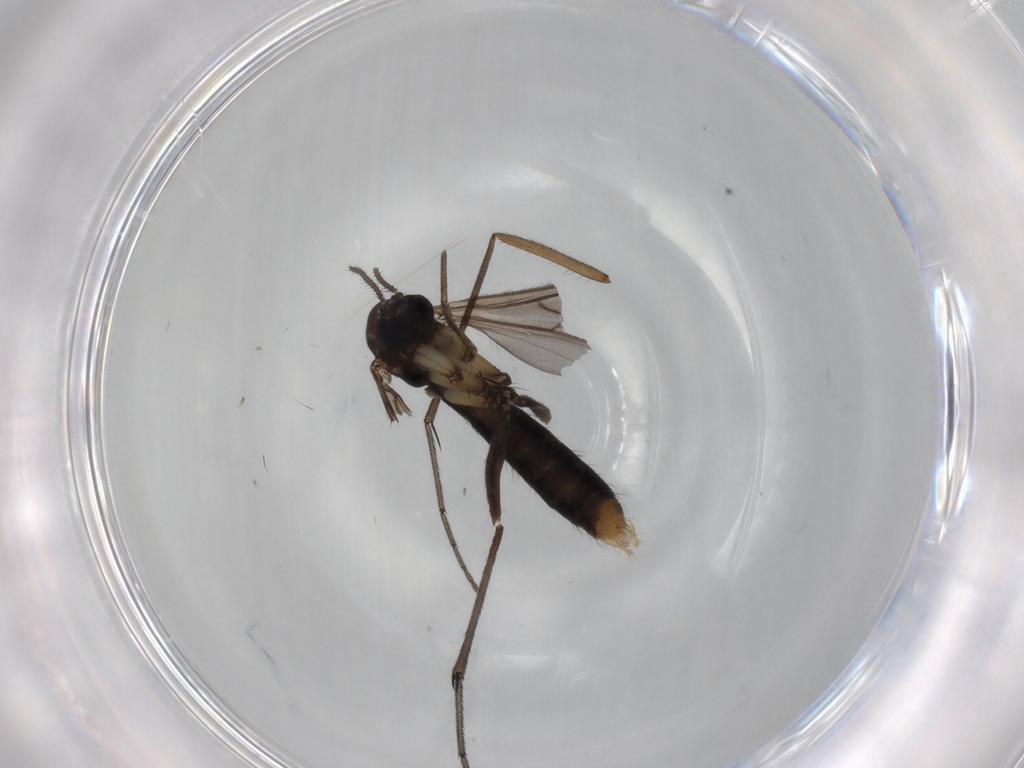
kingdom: Animalia
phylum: Arthropoda
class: Insecta
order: Diptera
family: Ditomyiidae
